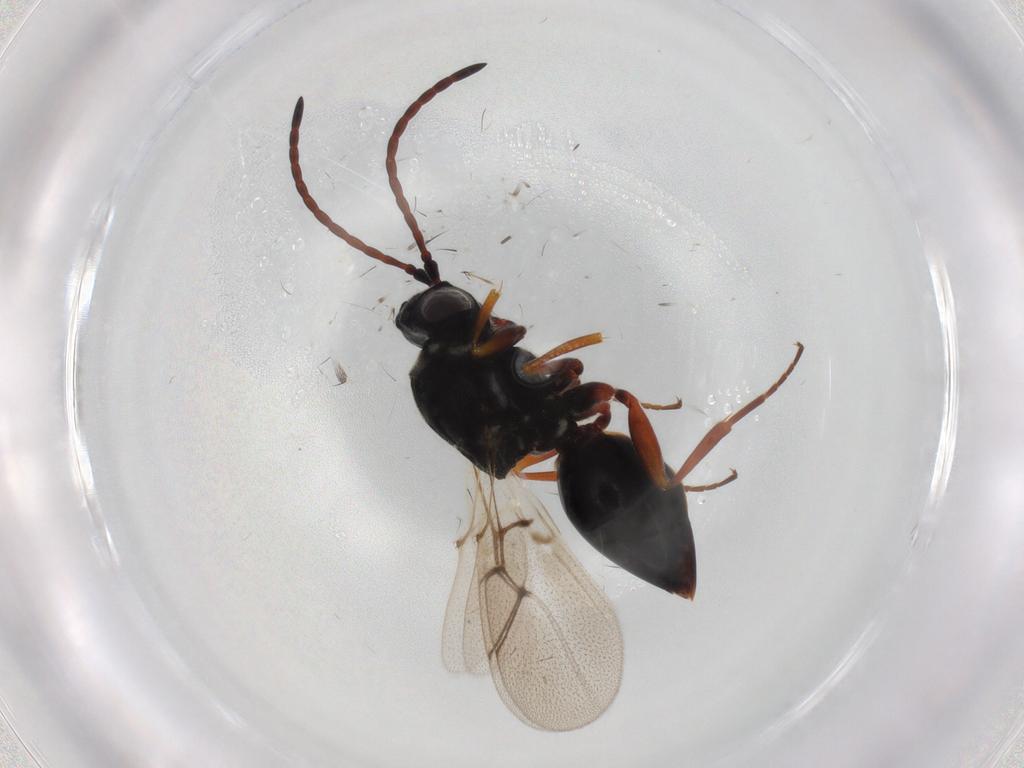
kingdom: Animalia
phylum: Arthropoda
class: Insecta
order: Hymenoptera
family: Figitidae
